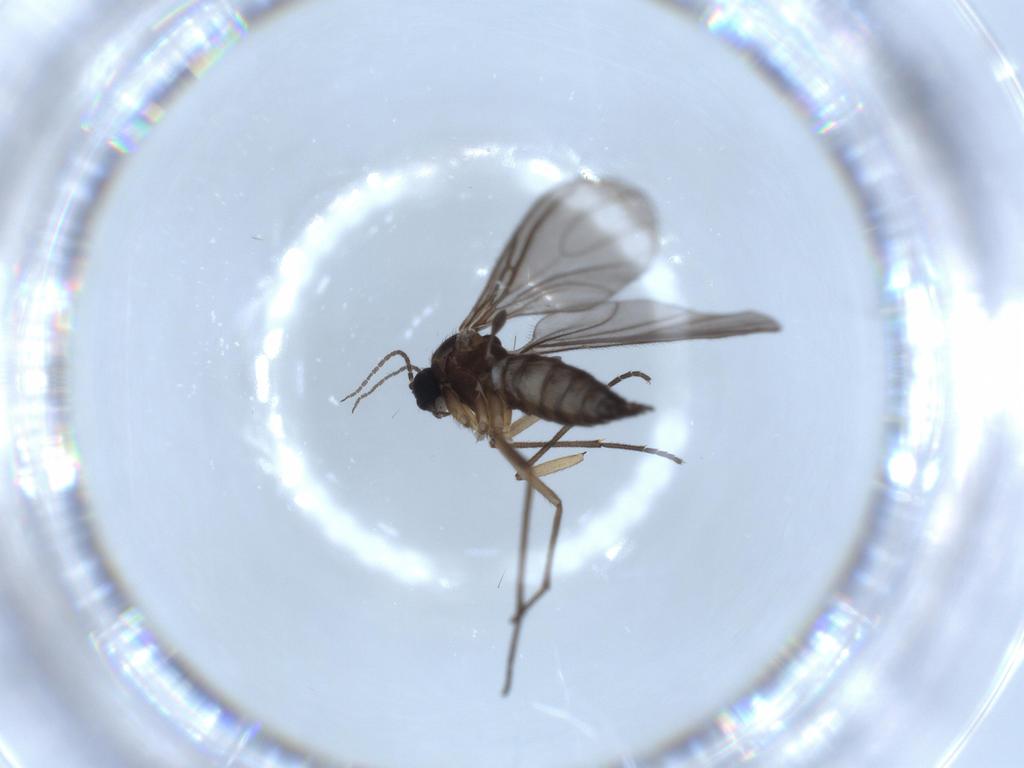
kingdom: Animalia
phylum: Arthropoda
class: Insecta
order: Diptera
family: Sciaridae
